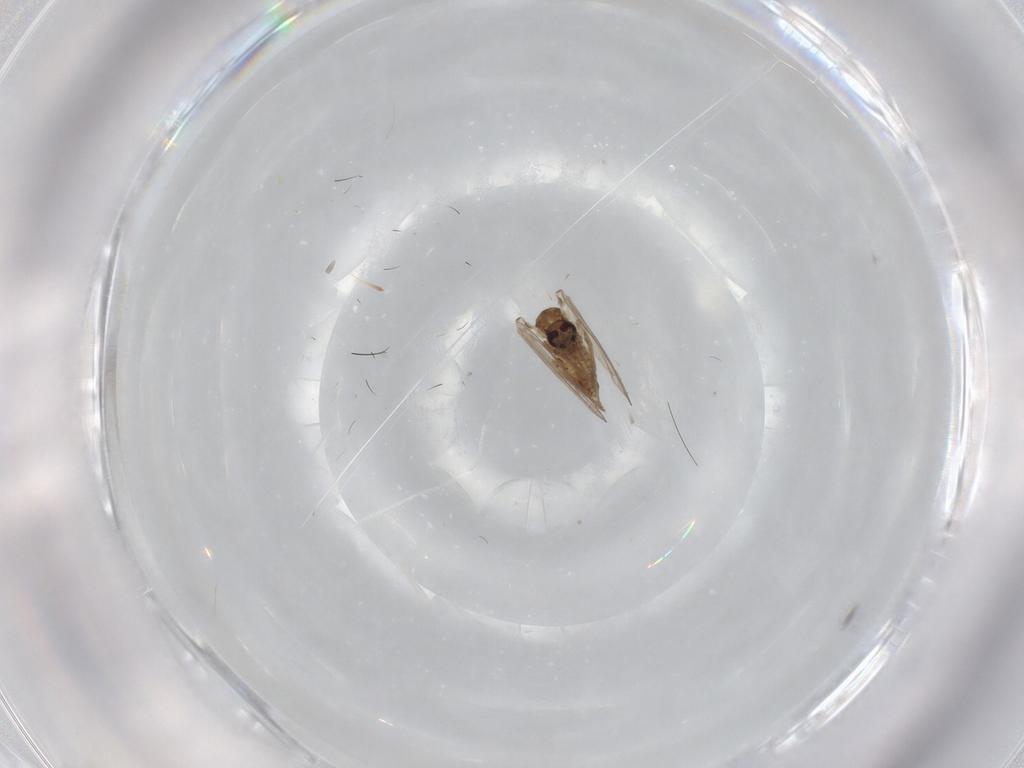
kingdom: Animalia
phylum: Arthropoda
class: Insecta
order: Diptera
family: Psychodidae
